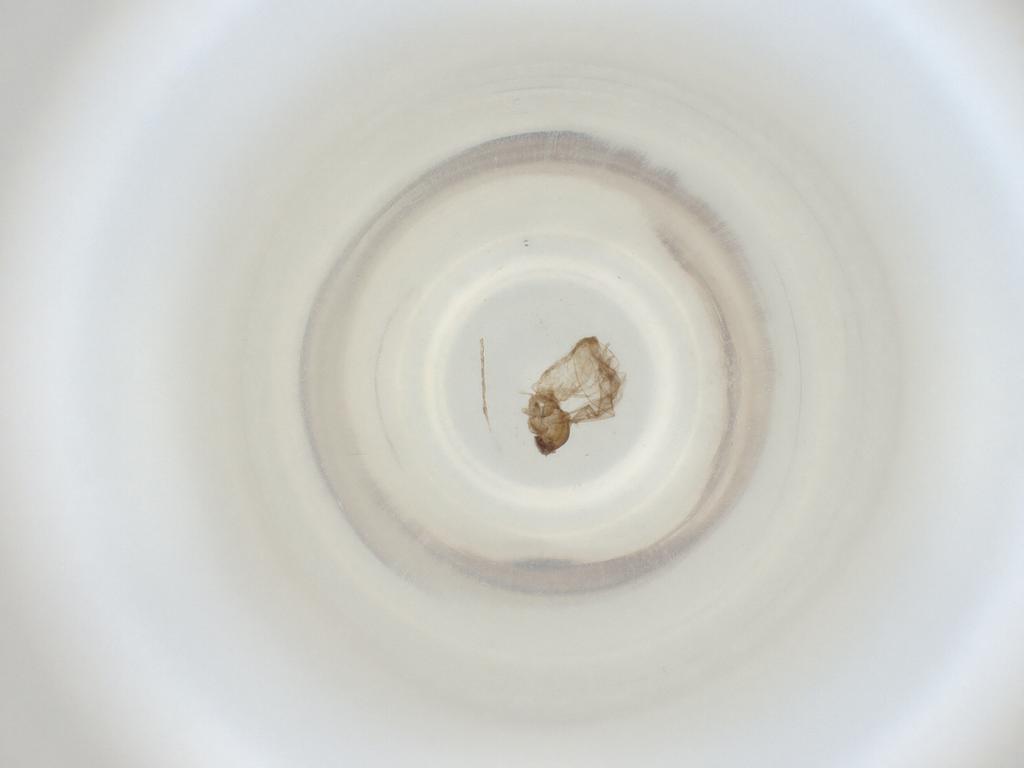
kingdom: Animalia
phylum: Arthropoda
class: Insecta
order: Diptera
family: Cecidomyiidae
